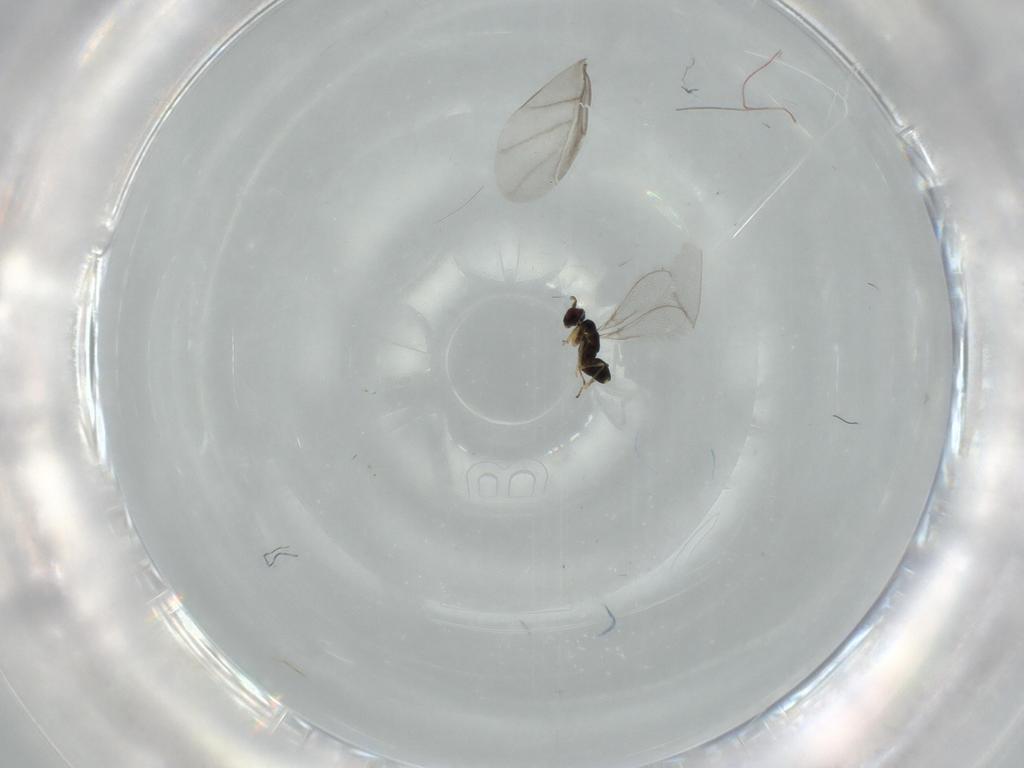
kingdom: Animalia
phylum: Arthropoda
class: Insecta
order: Hymenoptera
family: Mymaridae
